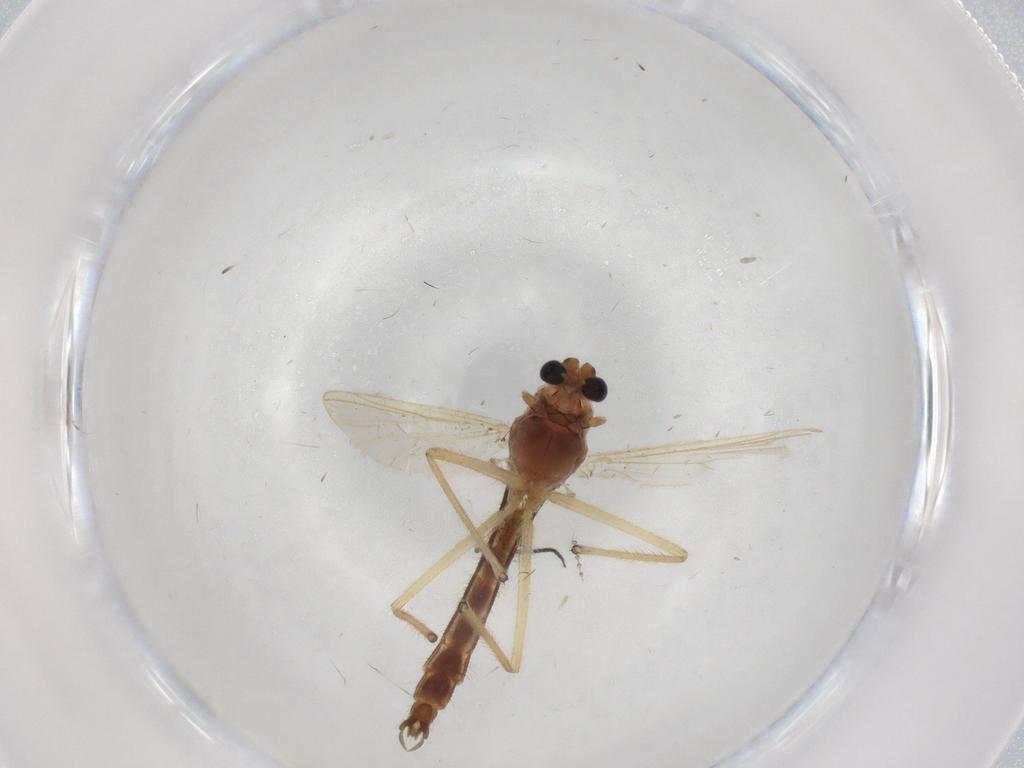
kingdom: Animalia
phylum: Arthropoda
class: Insecta
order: Diptera
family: Chironomidae
